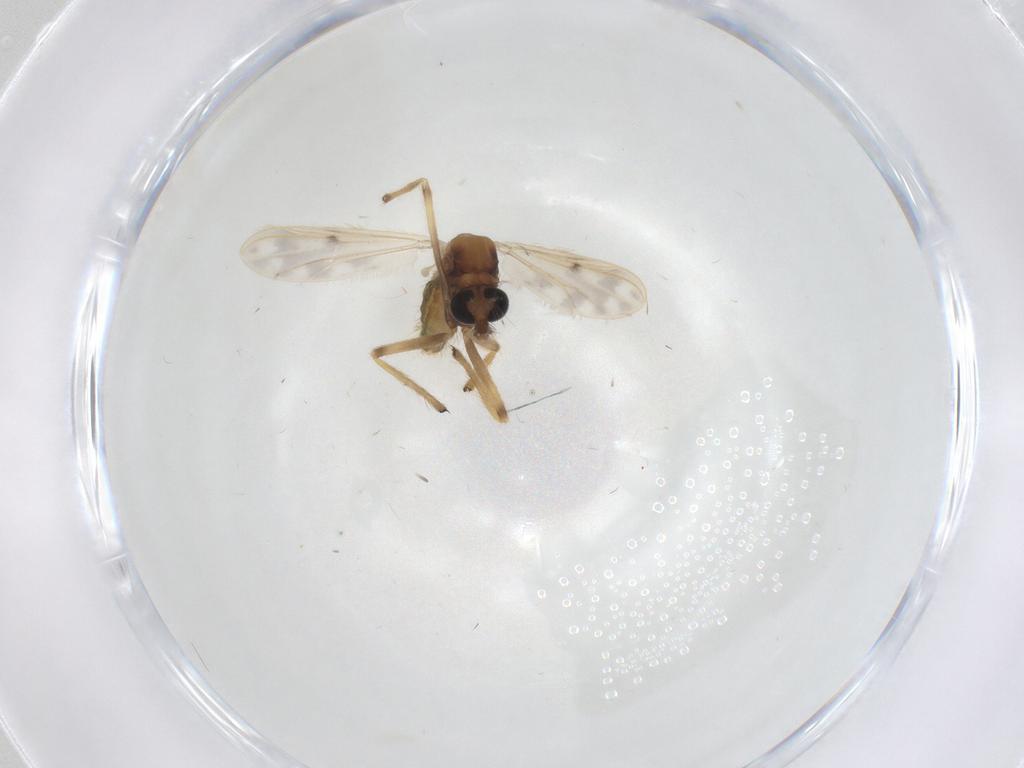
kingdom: Animalia
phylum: Arthropoda
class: Insecta
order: Diptera
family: Chironomidae
